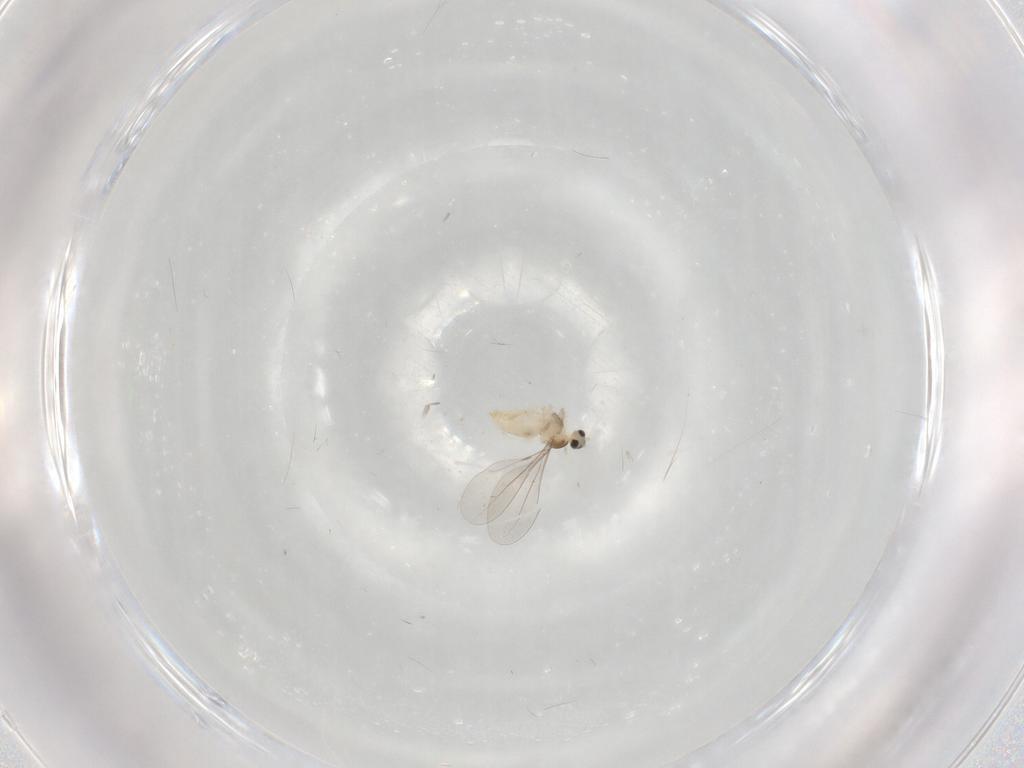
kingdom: Animalia
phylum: Arthropoda
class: Insecta
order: Diptera
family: Cecidomyiidae
